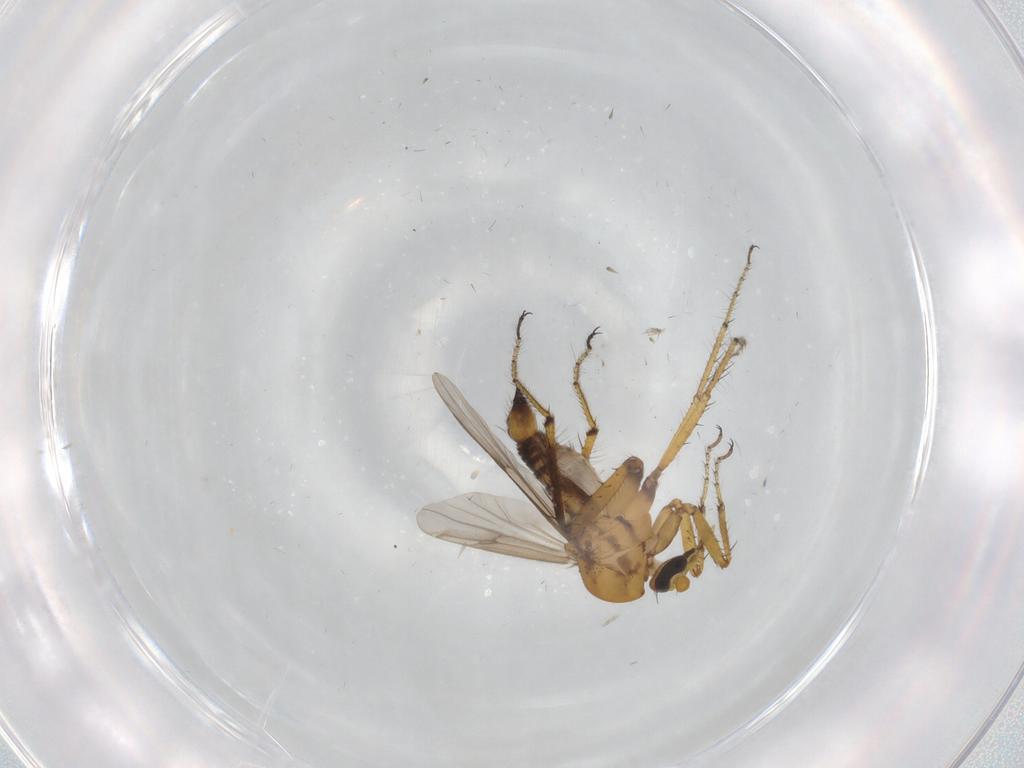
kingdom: Animalia
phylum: Arthropoda
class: Insecta
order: Diptera
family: Ceratopogonidae
